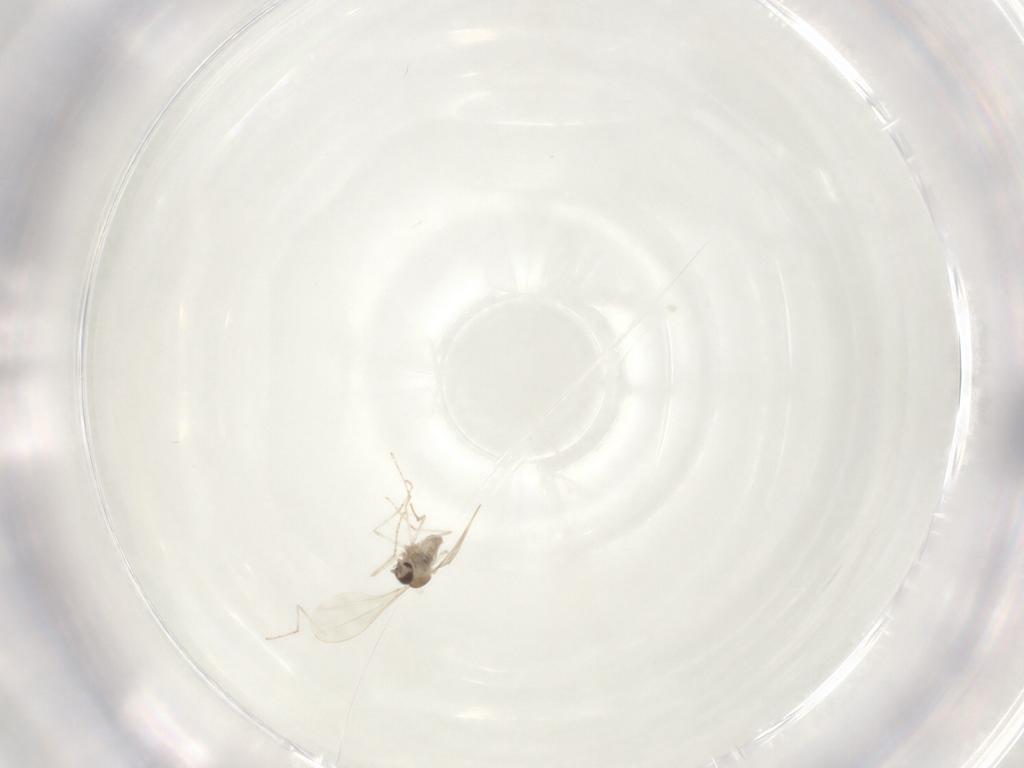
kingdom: Animalia
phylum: Arthropoda
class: Insecta
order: Diptera
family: Cecidomyiidae
